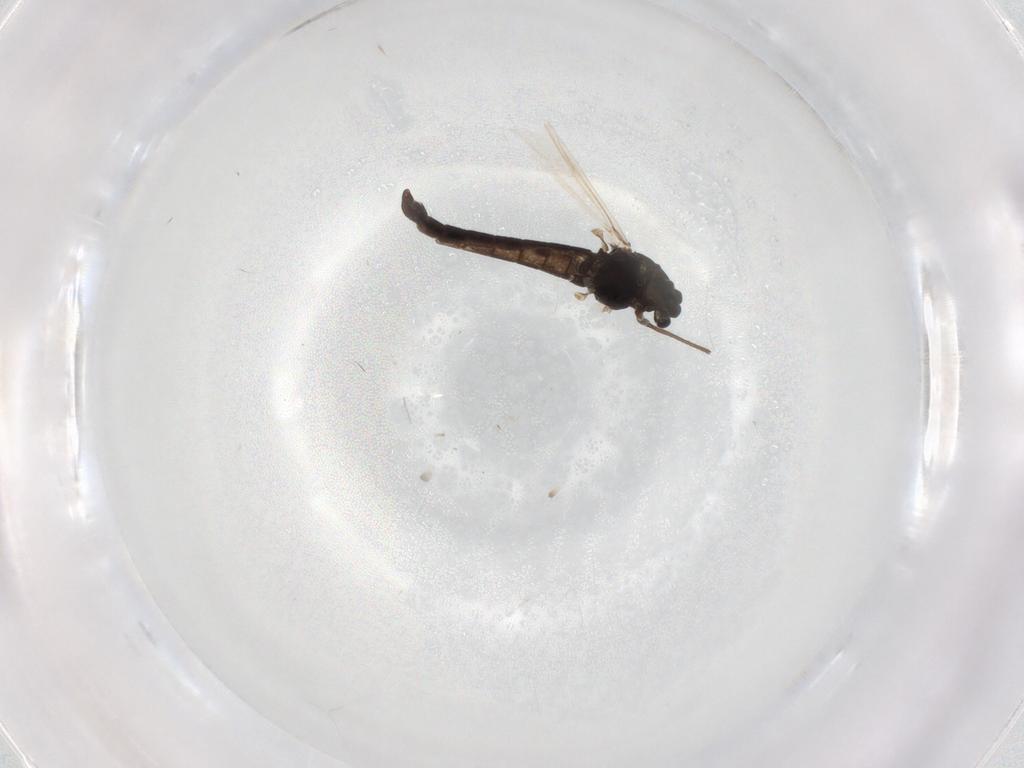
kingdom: Animalia
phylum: Arthropoda
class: Insecta
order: Diptera
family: Chironomidae
